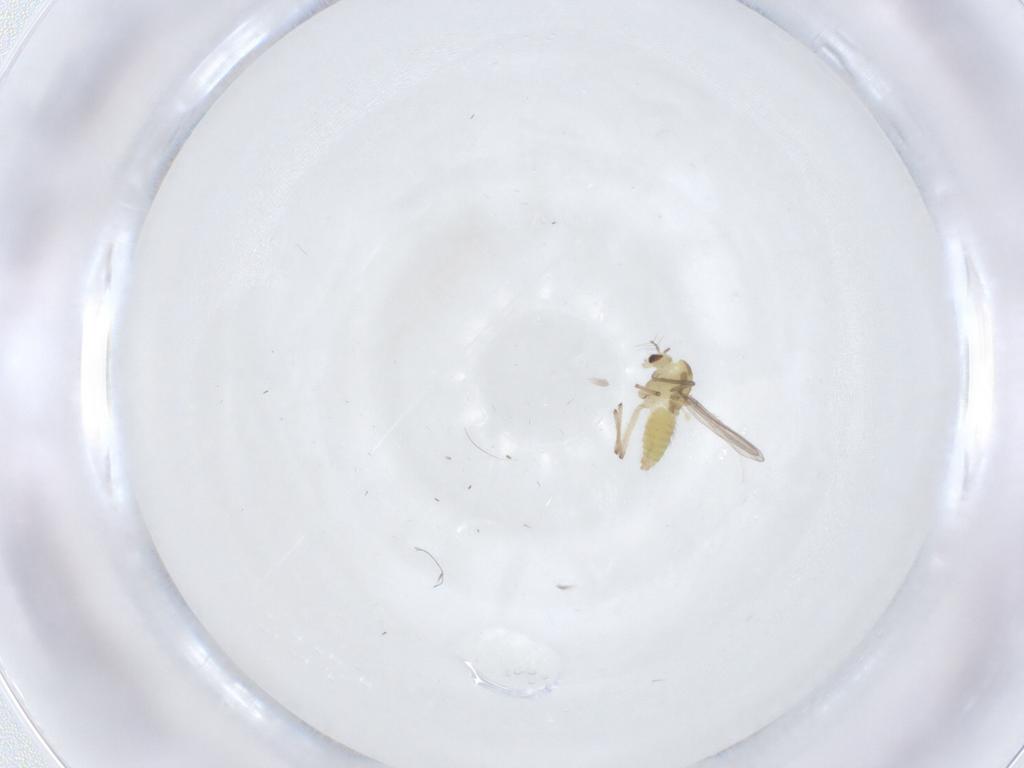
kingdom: Animalia
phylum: Arthropoda
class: Insecta
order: Diptera
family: Chironomidae
